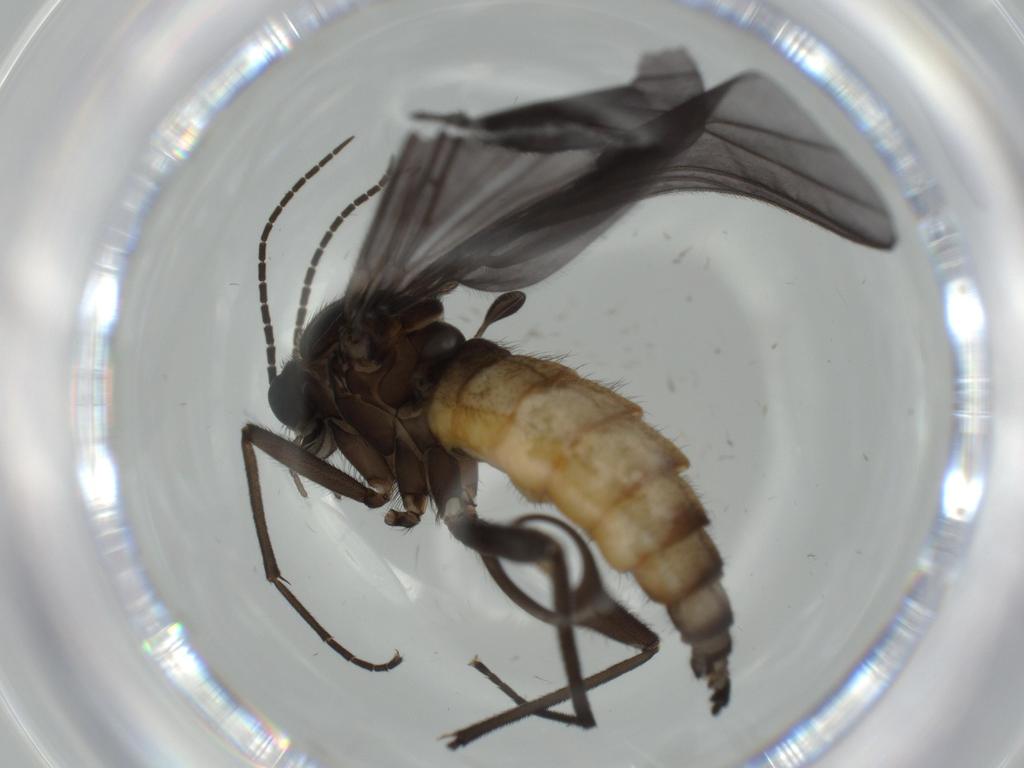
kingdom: Animalia
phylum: Arthropoda
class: Insecta
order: Diptera
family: Sciaridae
